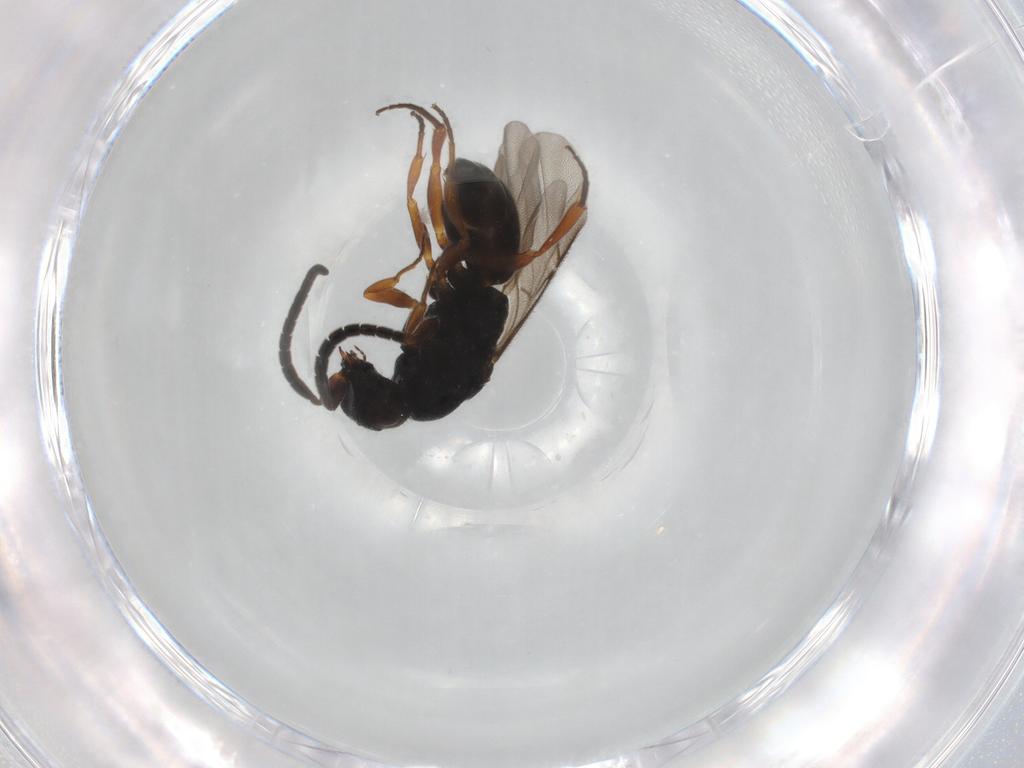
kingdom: Animalia
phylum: Arthropoda
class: Insecta
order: Hymenoptera
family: Chrysididae
